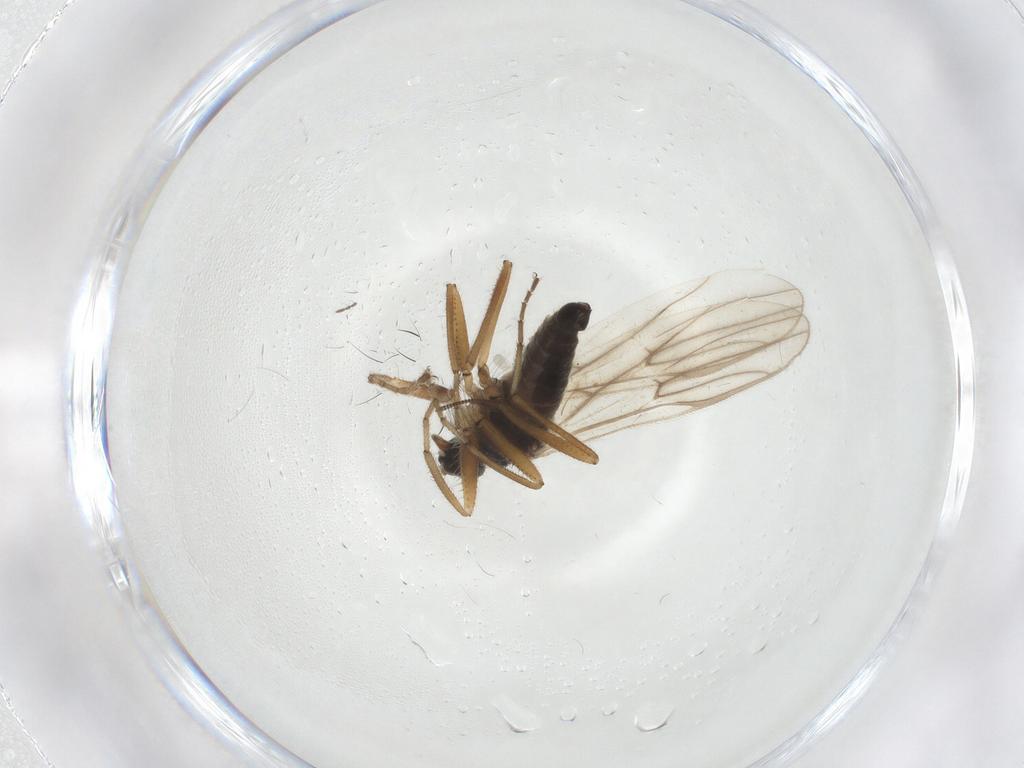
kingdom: Animalia
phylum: Arthropoda
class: Insecta
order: Diptera
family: Hybotidae
